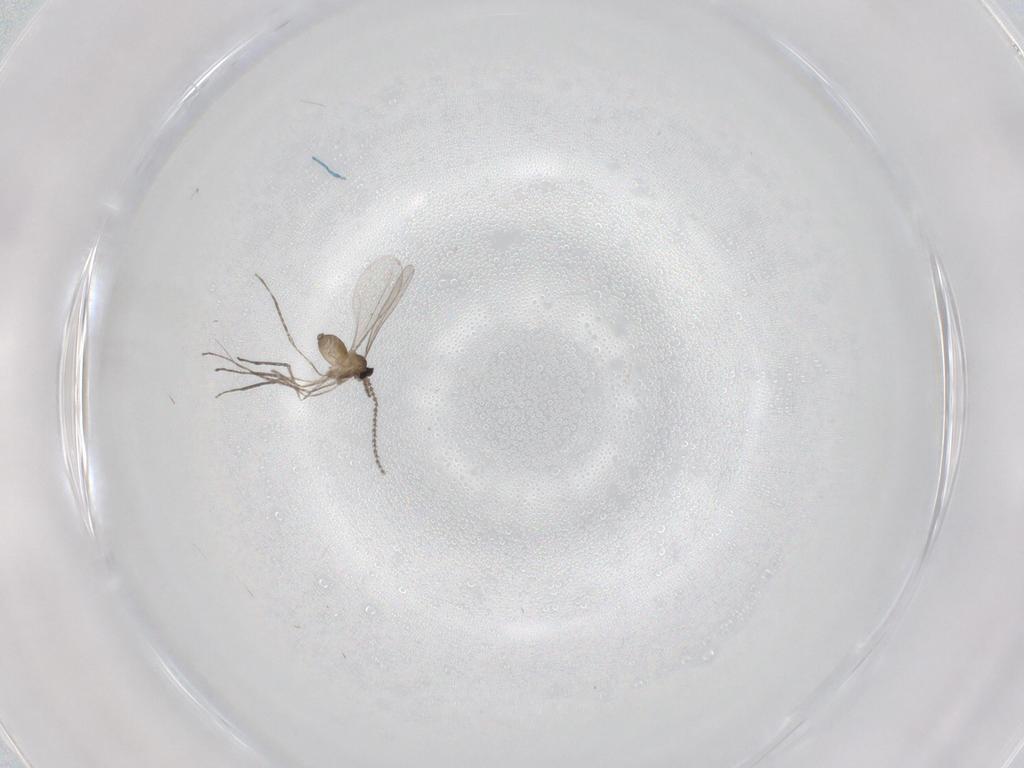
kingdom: Animalia
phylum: Arthropoda
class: Insecta
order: Diptera
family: Cecidomyiidae
